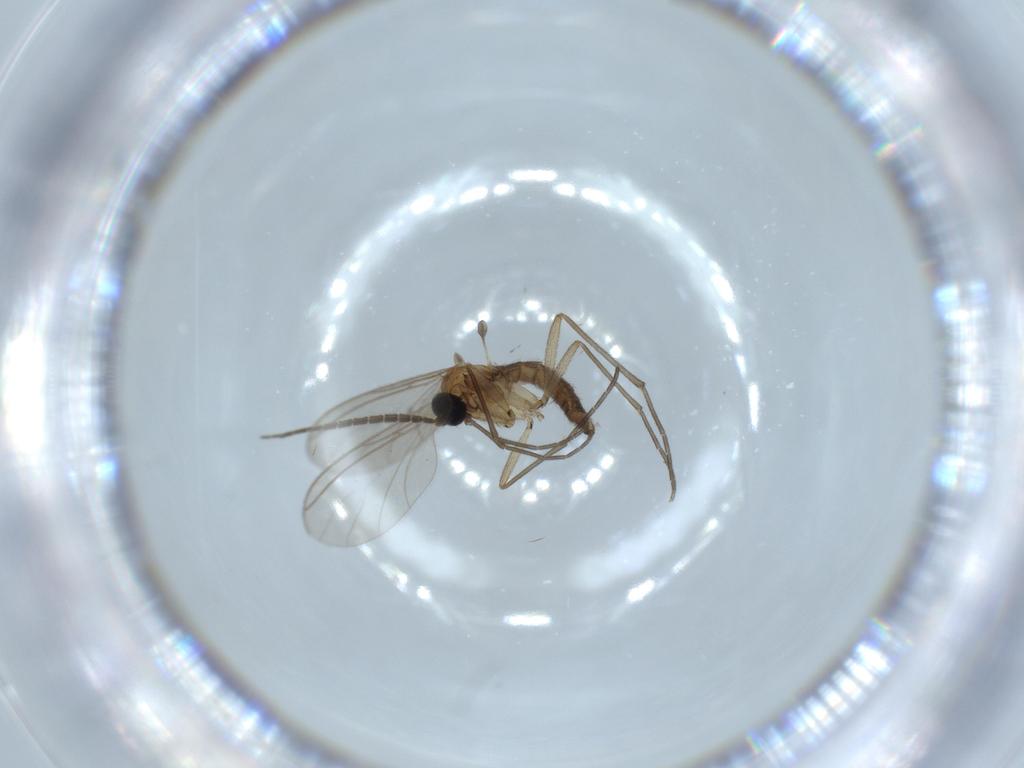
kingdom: Animalia
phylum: Arthropoda
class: Insecta
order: Diptera
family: Sciaridae
